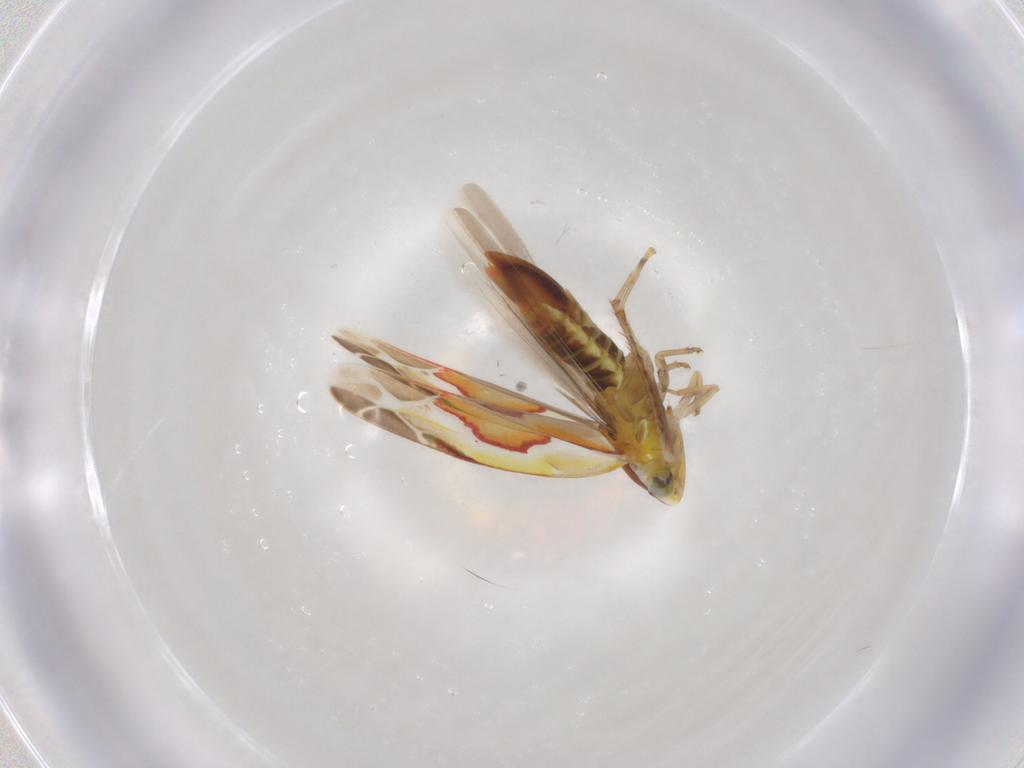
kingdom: Animalia
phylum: Arthropoda
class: Insecta
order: Hemiptera
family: Cicadellidae
